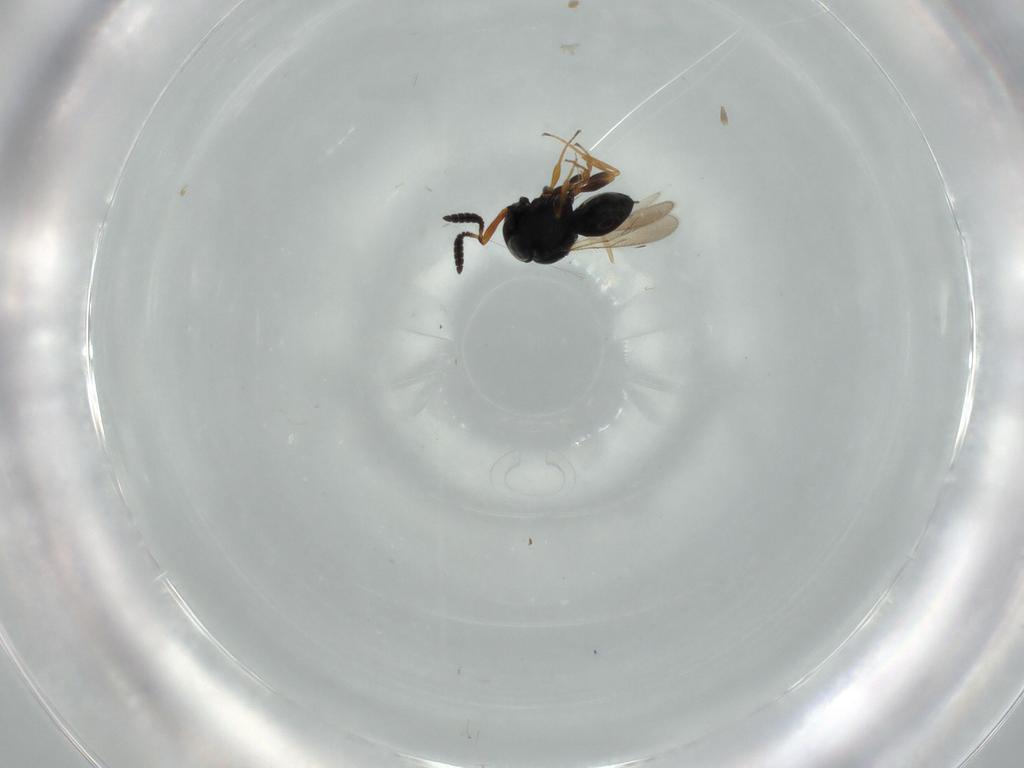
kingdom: Animalia
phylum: Arthropoda
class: Insecta
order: Hymenoptera
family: Scelionidae
